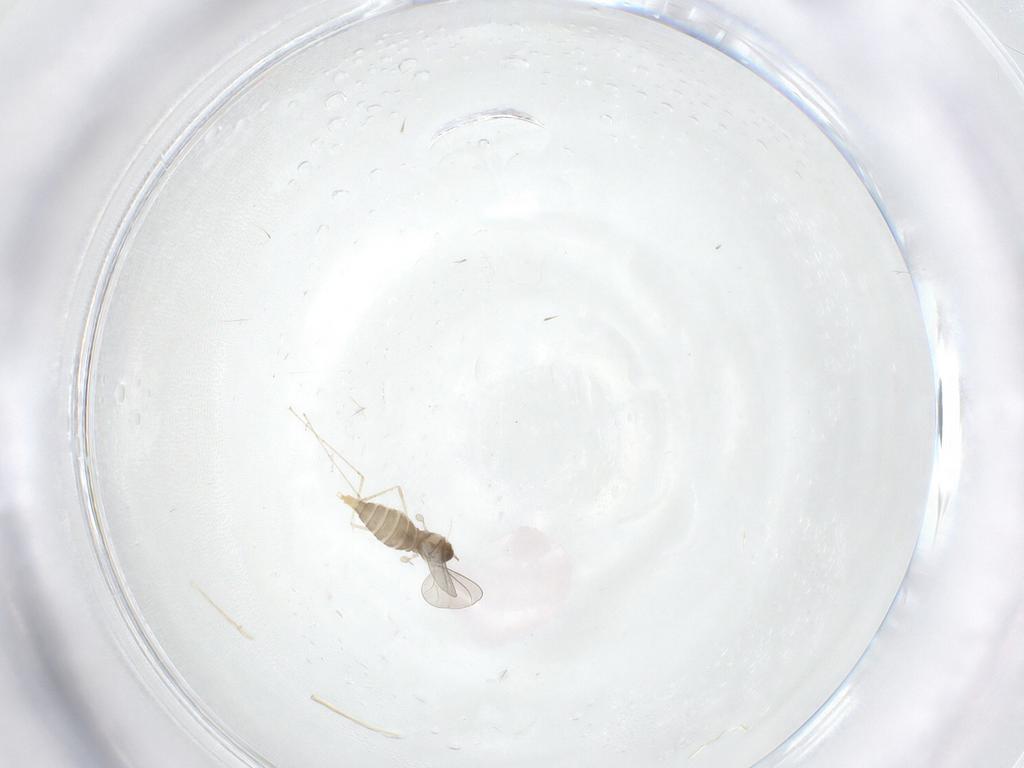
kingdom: Animalia
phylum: Arthropoda
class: Insecta
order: Diptera
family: Cecidomyiidae
